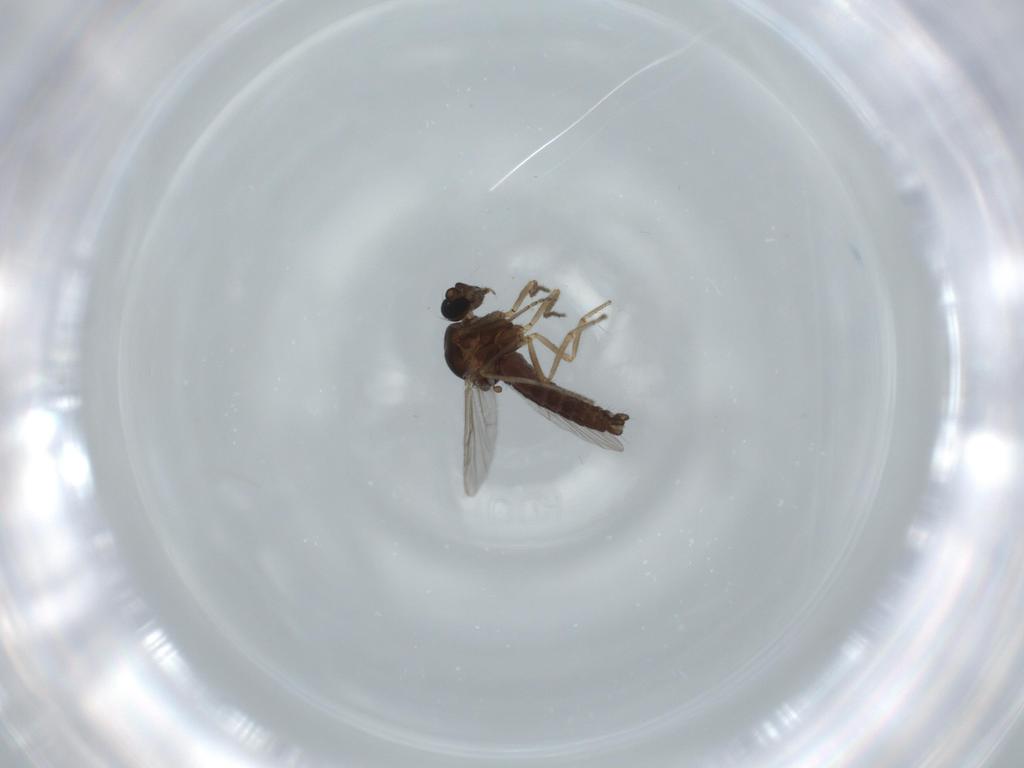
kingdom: Animalia
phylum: Arthropoda
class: Insecta
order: Diptera
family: Ceratopogonidae
